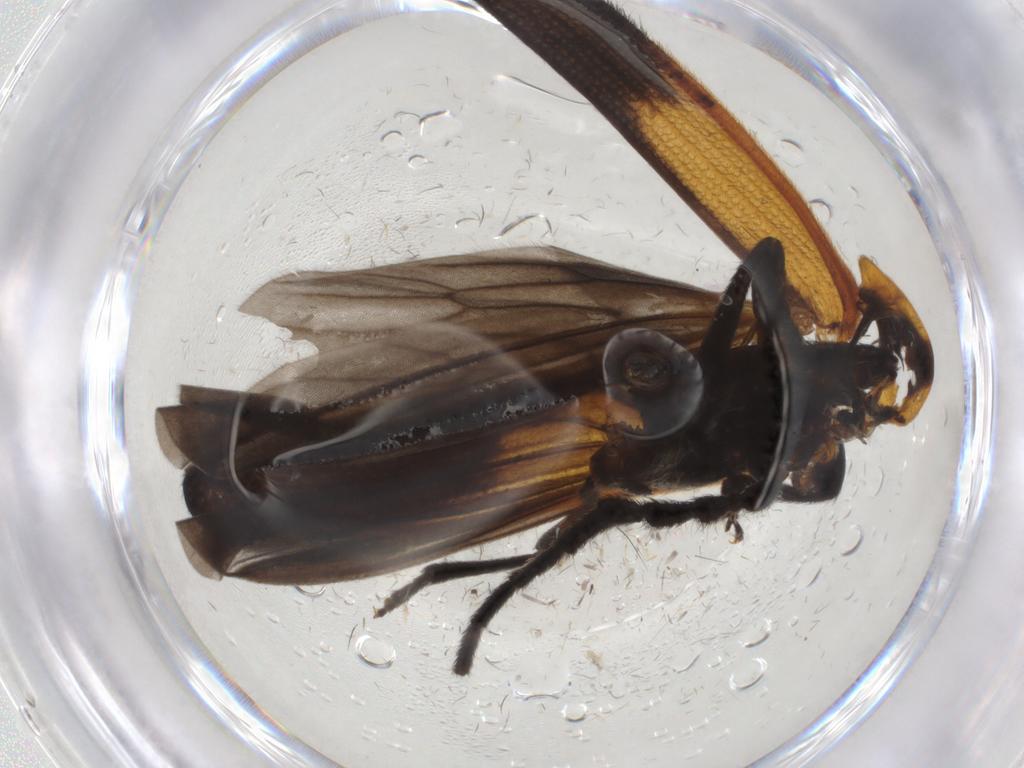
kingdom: Animalia
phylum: Arthropoda
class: Insecta
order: Coleoptera
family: Lycidae
